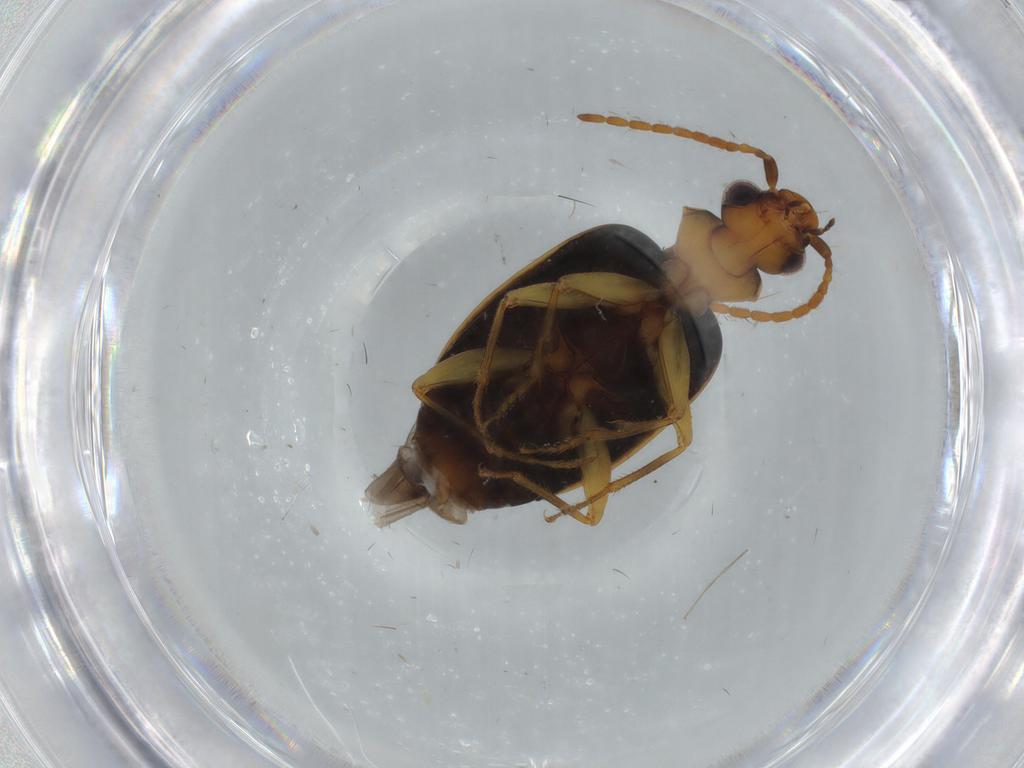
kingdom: Animalia
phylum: Arthropoda
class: Insecta
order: Coleoptera
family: Carabidae
